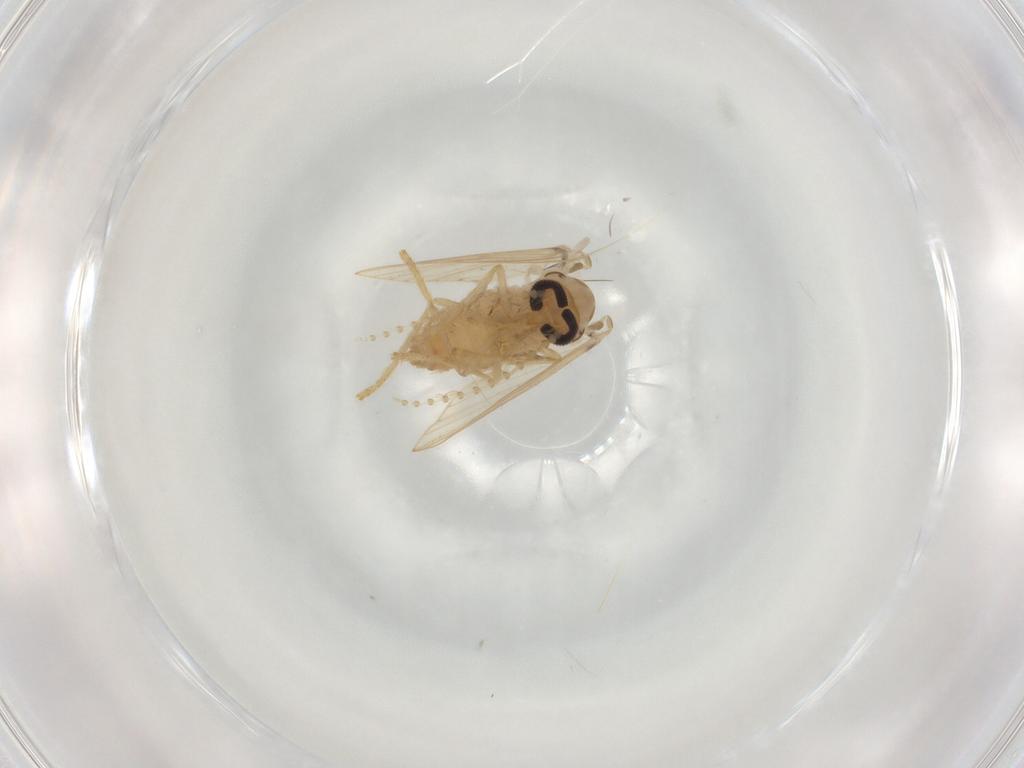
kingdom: Animalia
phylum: Arthropoda
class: Insecta
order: Diptera
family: Psychodidae
